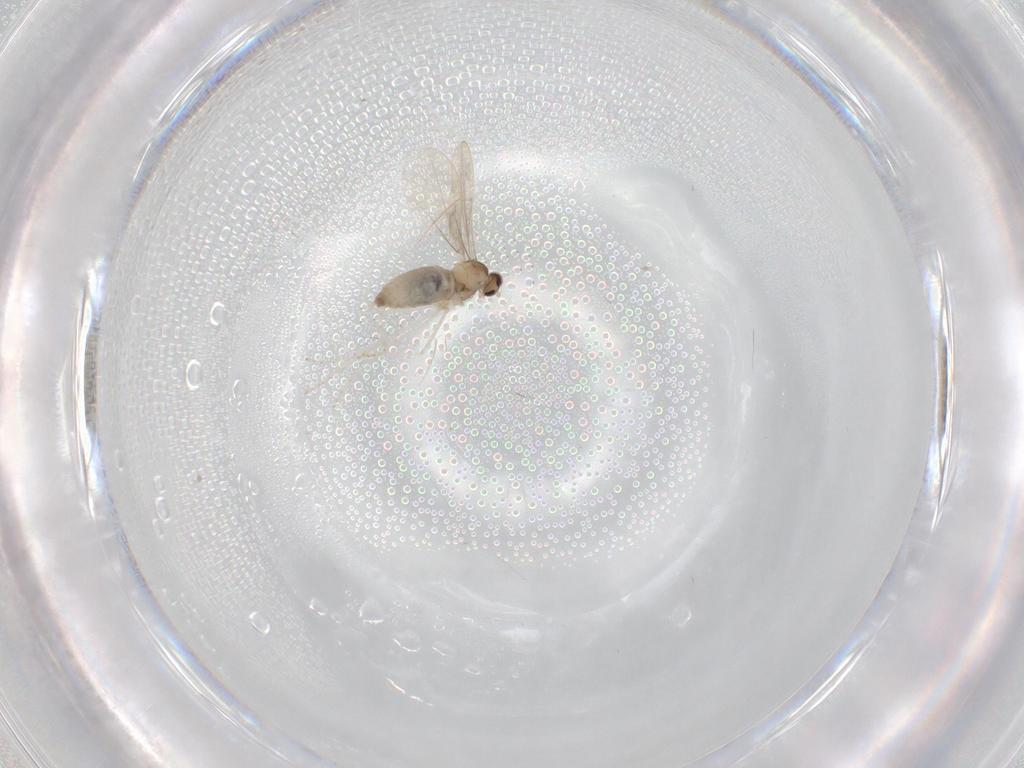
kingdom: Animalia
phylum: Arthropoda
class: Insecta
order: Diptera
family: Cecidomyiidae
